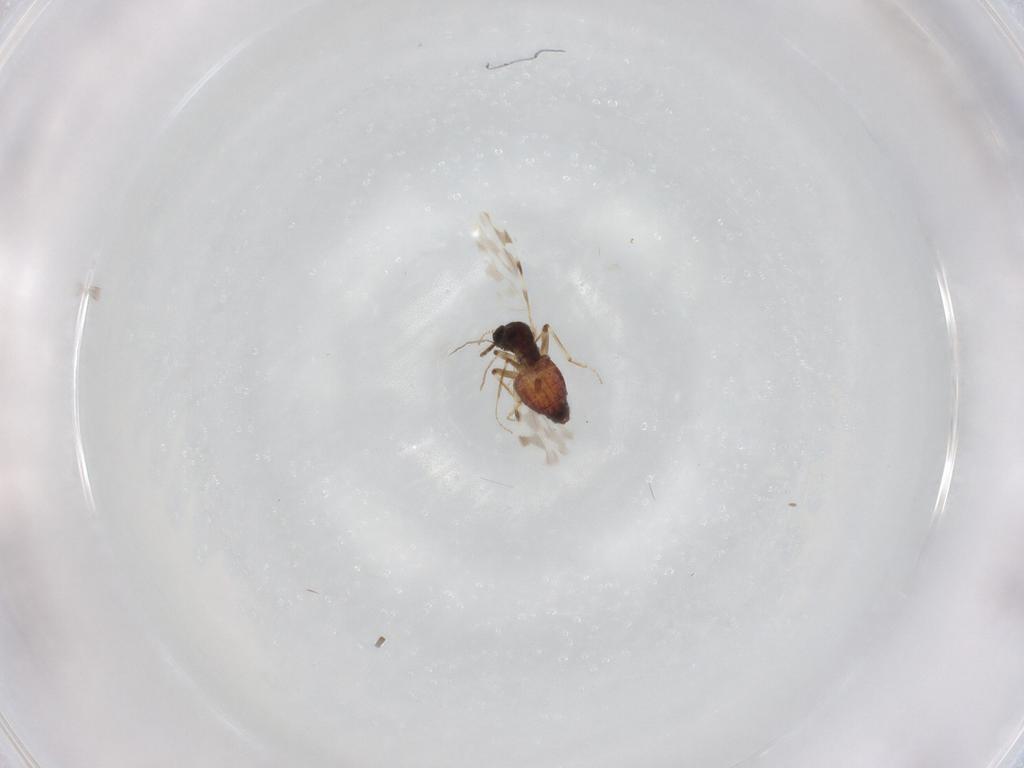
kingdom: Animalia
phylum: Arthropoda
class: Insecta
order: Diptera
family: Ceratopogonidae
